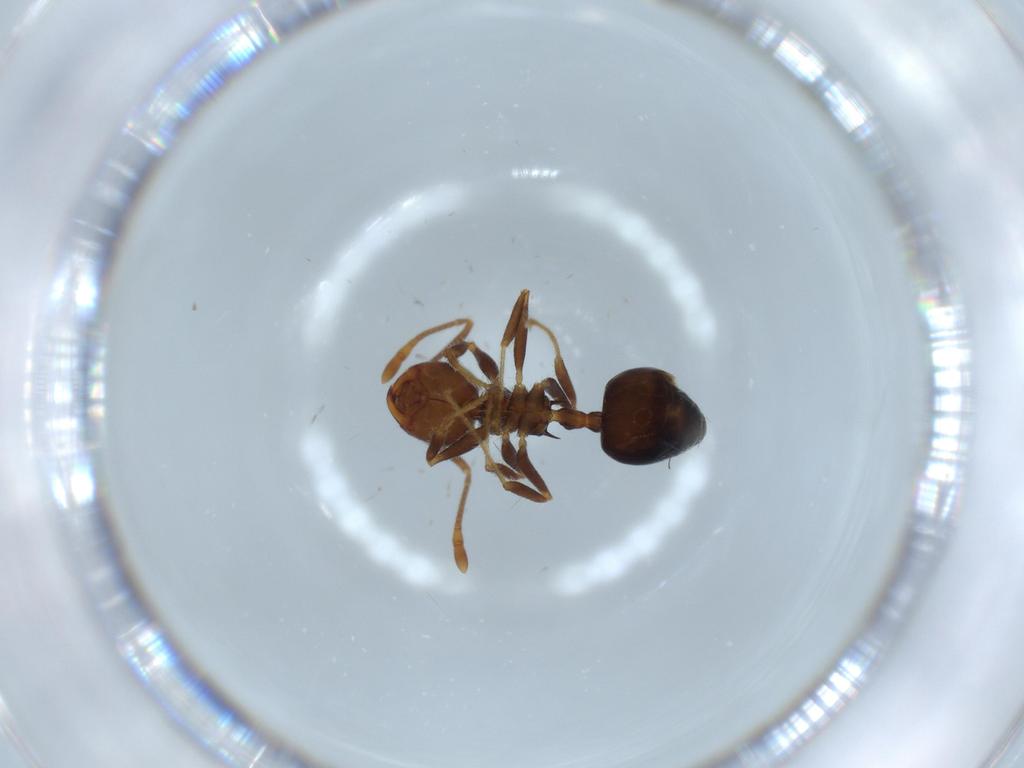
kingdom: Animalia
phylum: Arthropoda
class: Insecta
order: Hymenoptera
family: Formicidae
